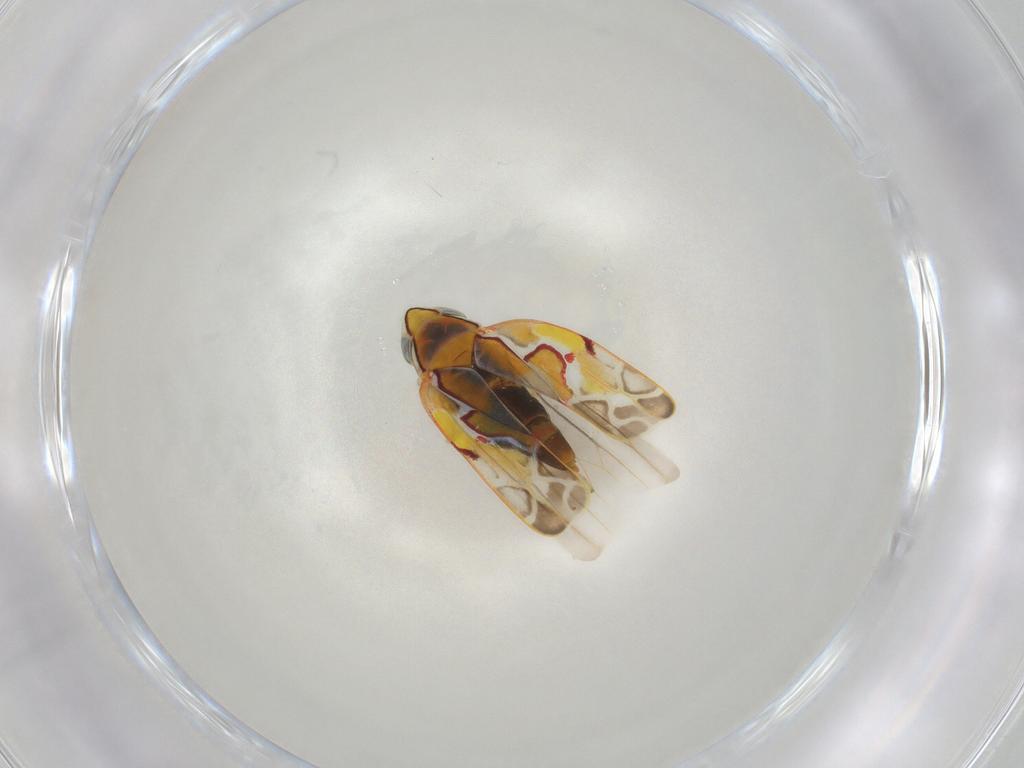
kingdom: Animalia
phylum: Arthropoda
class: Insecta
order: Hemiptera
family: Cicadellidae
